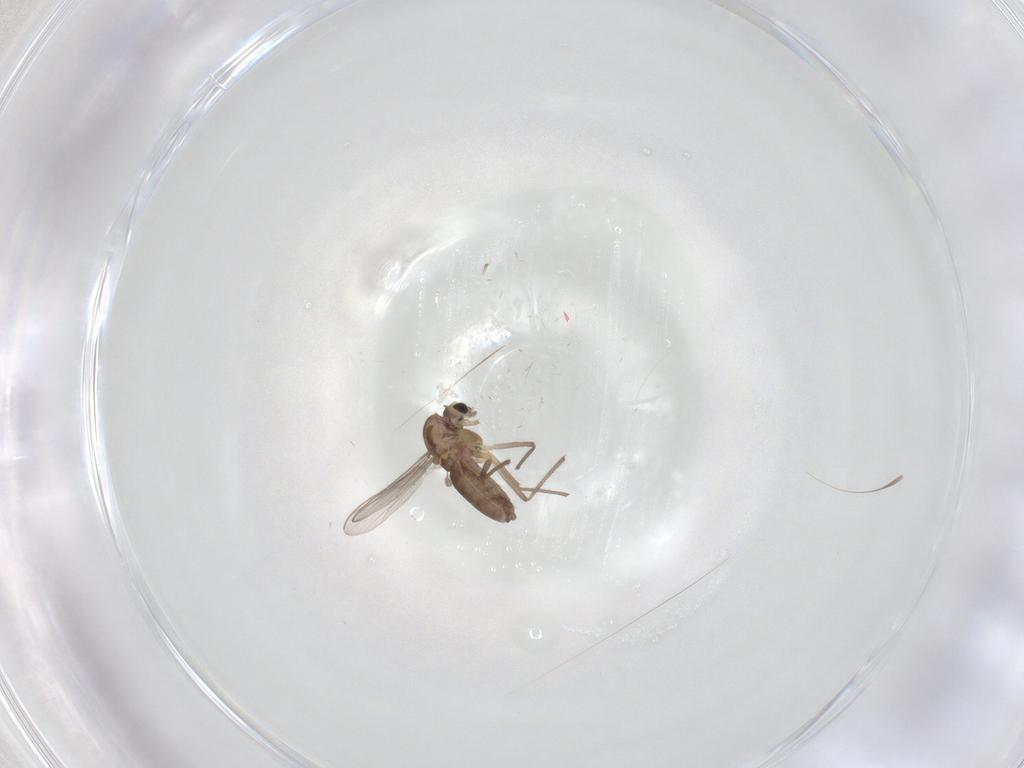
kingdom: Animalia
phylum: Arthropoda
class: Insecta
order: Diptera
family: Chironomidae
